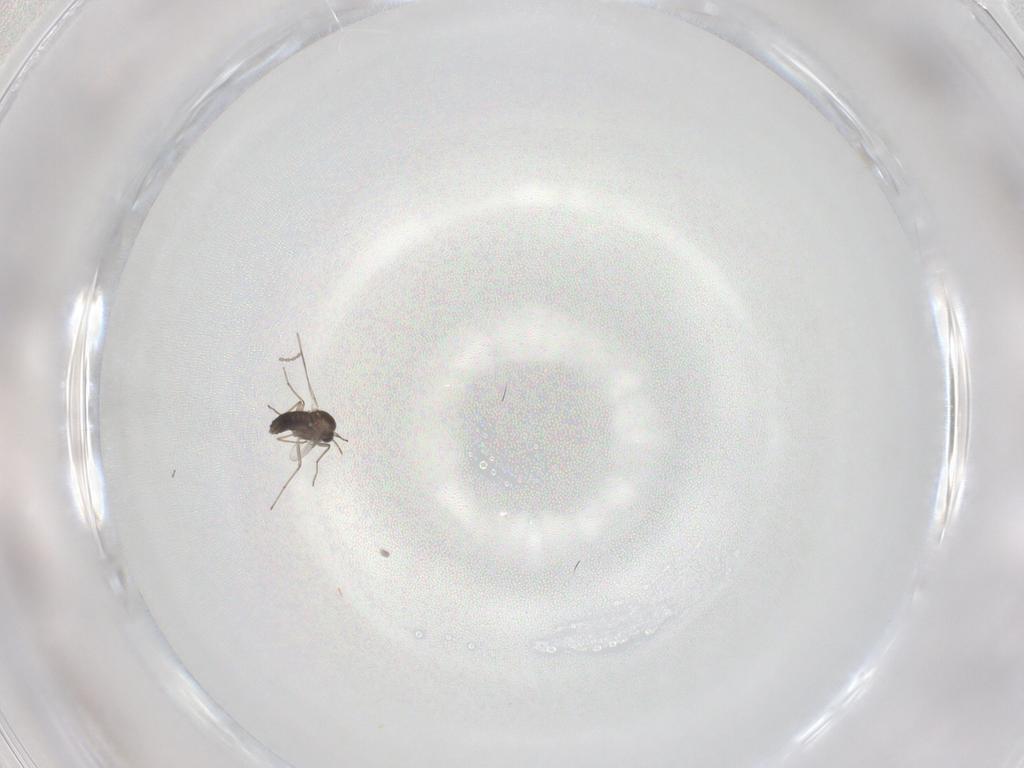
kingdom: Animalia
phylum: Arthropoda
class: Insecta
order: Diptera
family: Chironomidae
